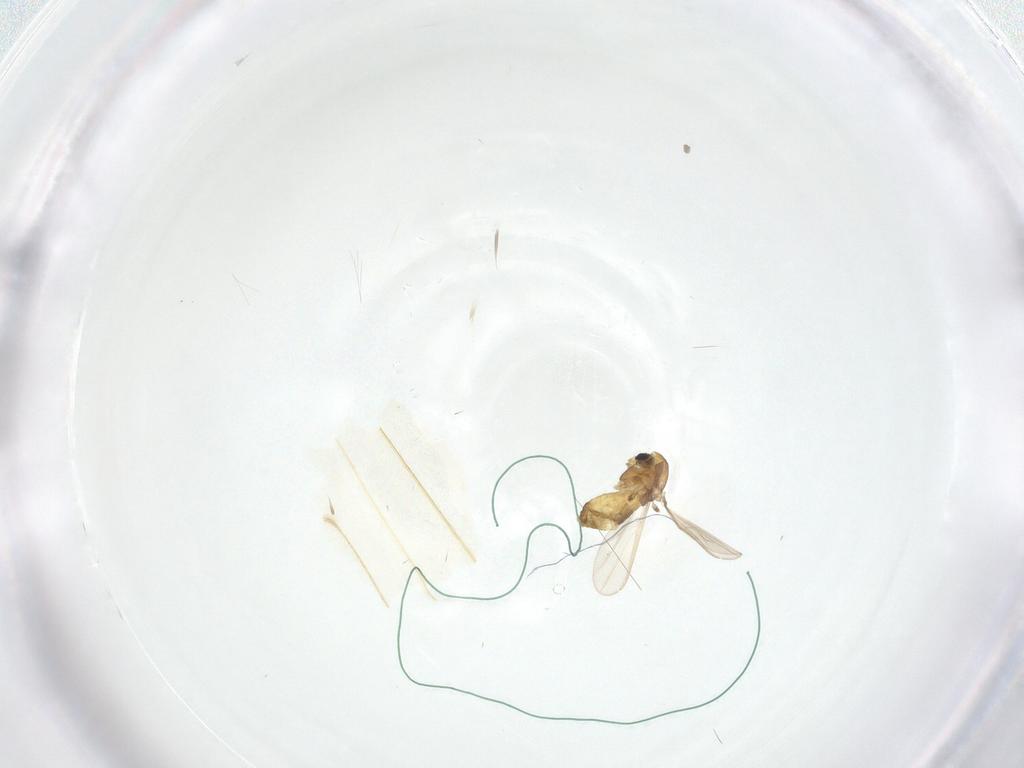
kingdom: Animalia
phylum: Arthropoda
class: Insecta
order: Diptera
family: Chironomidae
